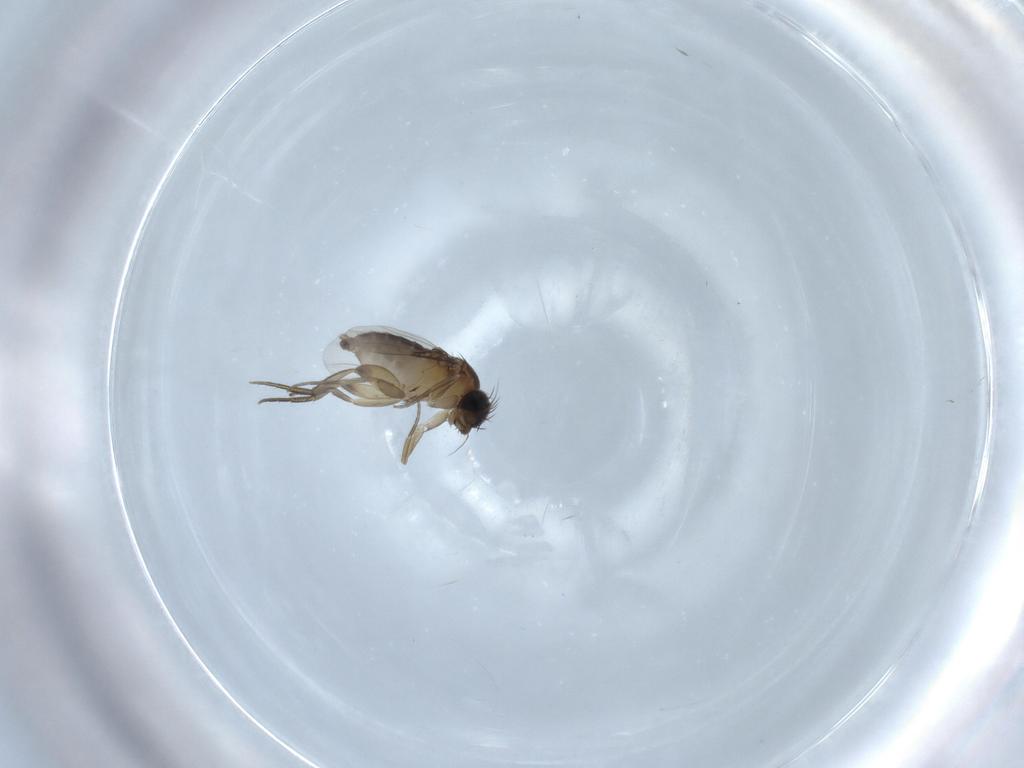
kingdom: Animalia
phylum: Arthropoda
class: Insecta
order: Diptera
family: Phoridae
